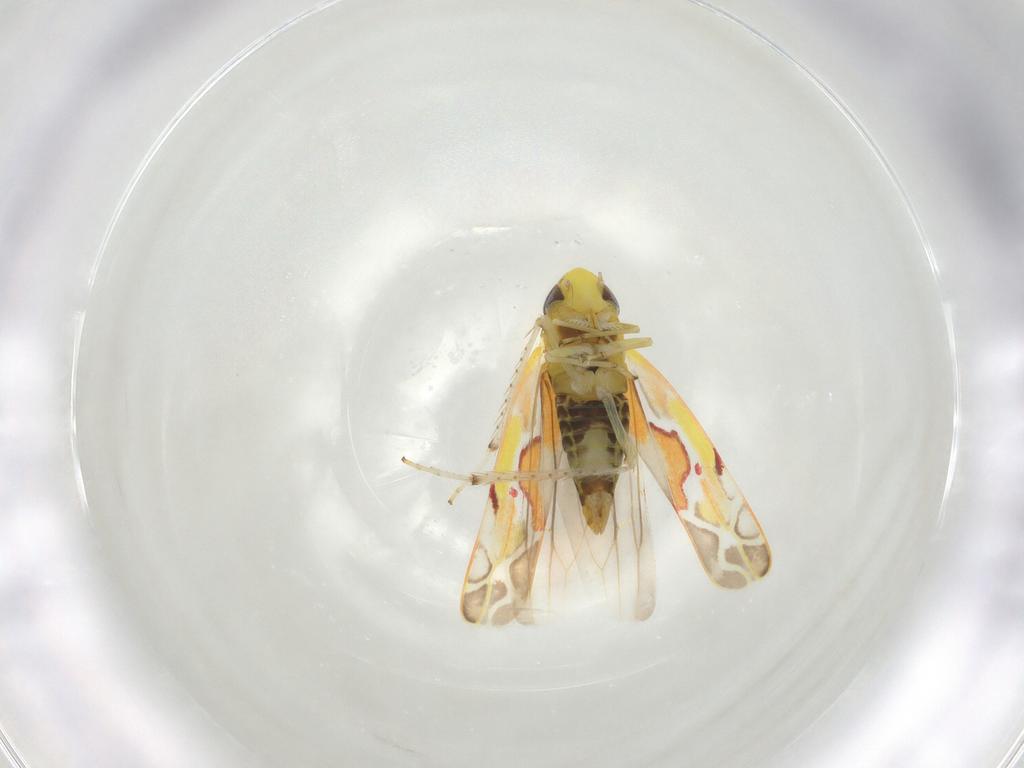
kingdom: Animalia
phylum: Arthropoda
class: Insecta
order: Hemiptera
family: Cicadellidae
